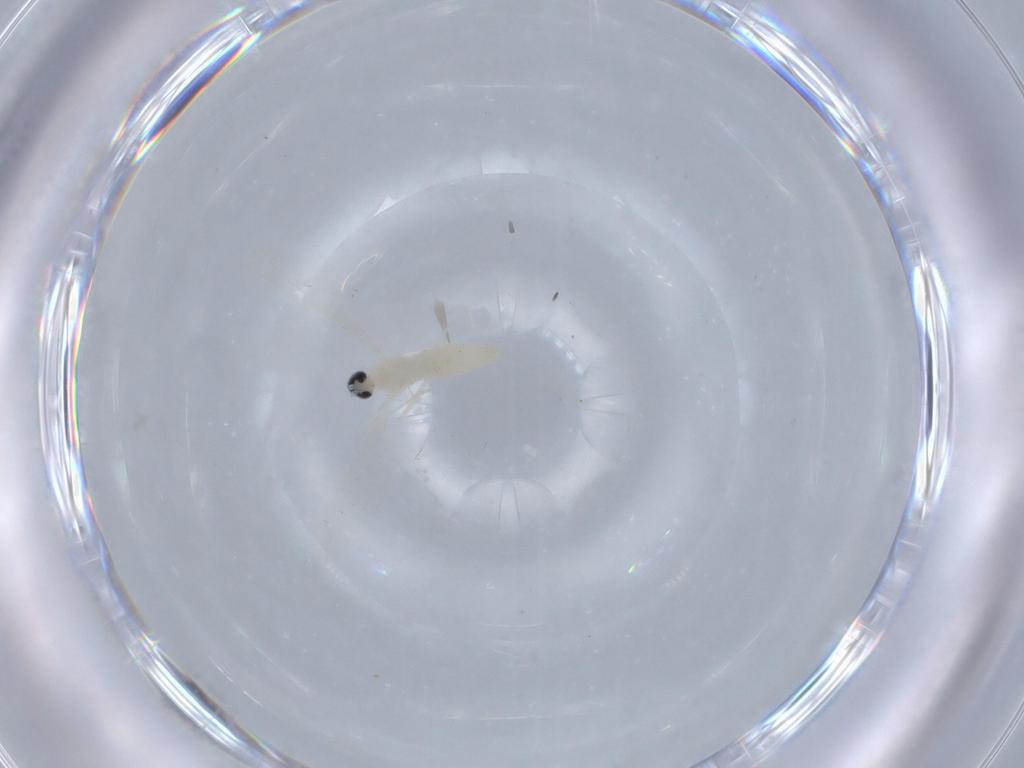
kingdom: Animalia
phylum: Arthropoda
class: Insecta
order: Diptera
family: Cecidomyiidae
